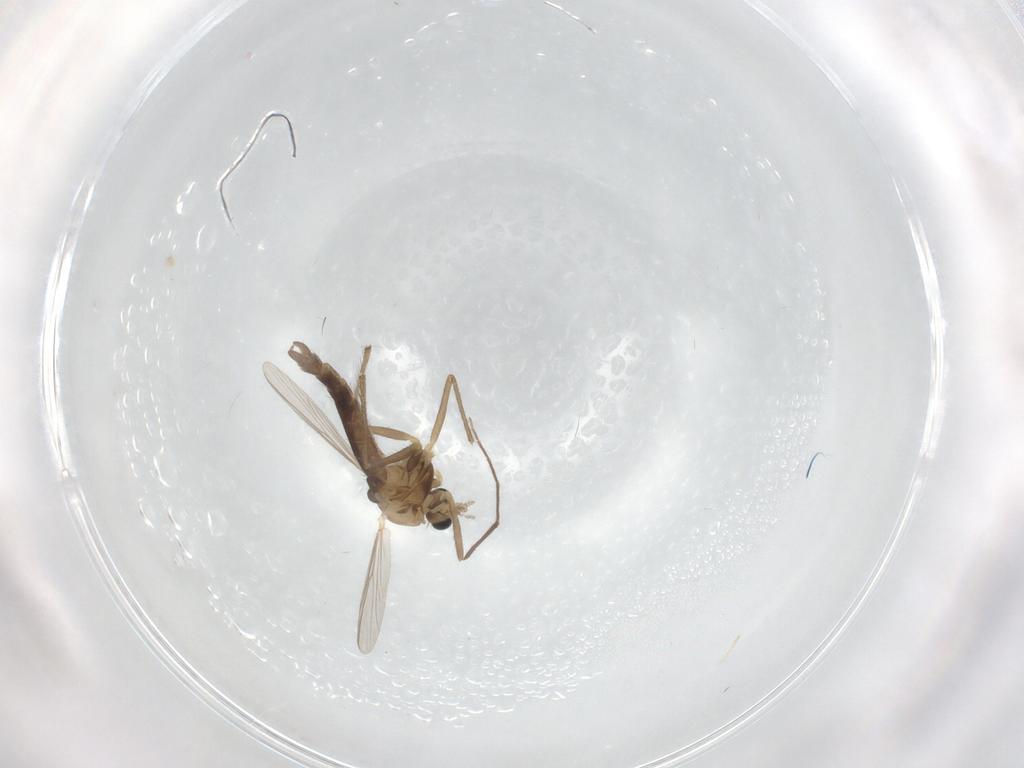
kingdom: Animalia
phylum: Arthropoda
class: Insecta
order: Diptera
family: Chironomidae
